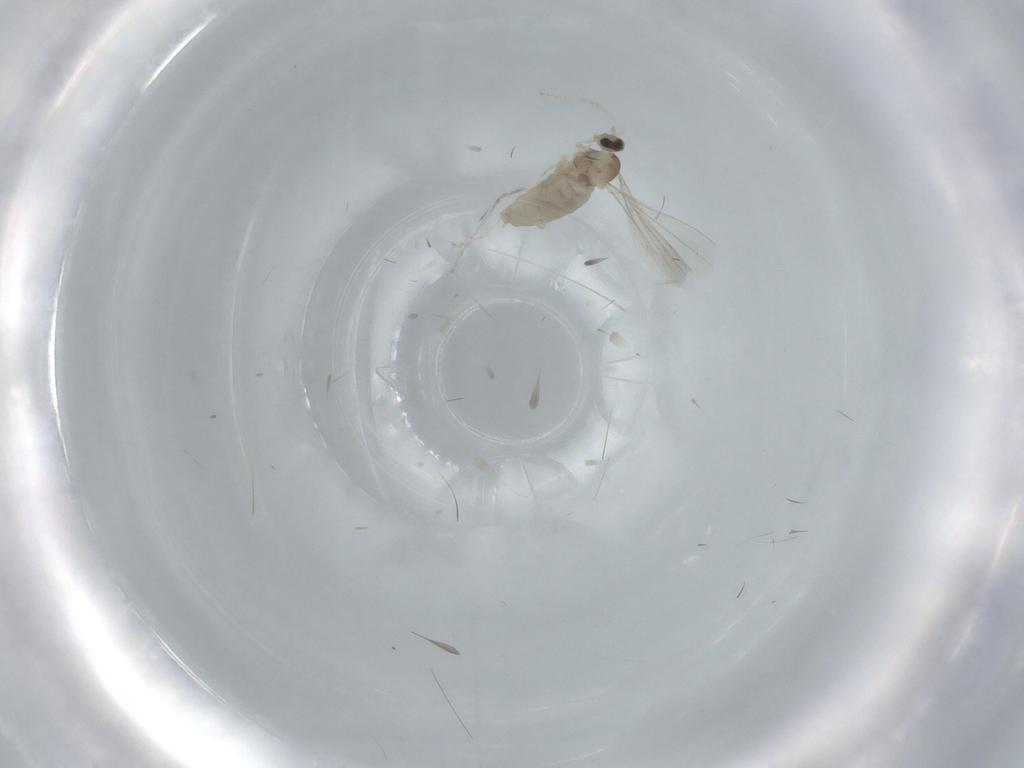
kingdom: Animalia
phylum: Arthropoda
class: Insecta
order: Diptera
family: Cecidomyiidae
